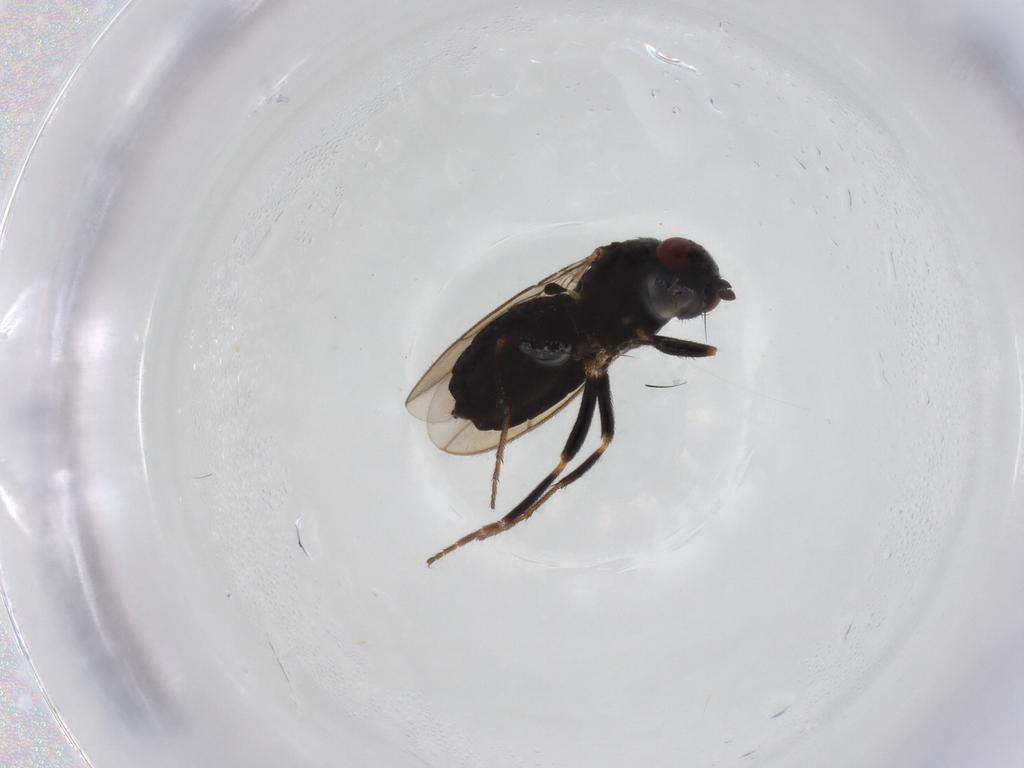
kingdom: Animalia
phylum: Arthropoda
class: Insecta
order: Diptera
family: Sphaeroceridae
